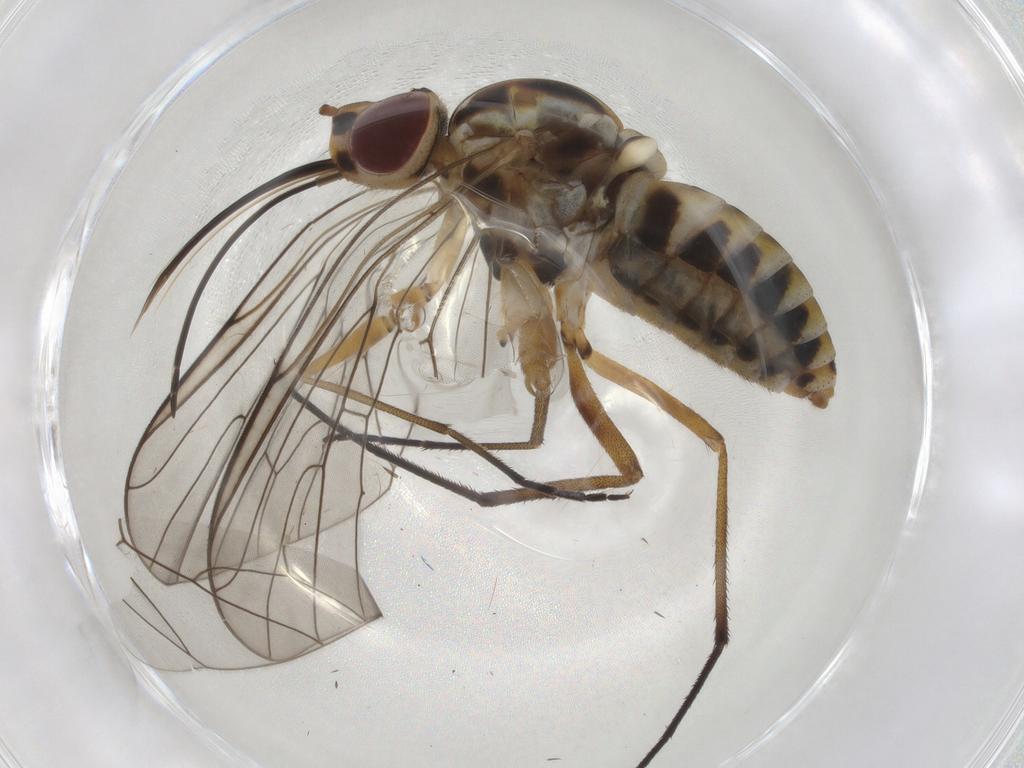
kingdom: Animalia
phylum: Arthropoda
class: Insecta
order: Diptera
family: Bombyliidae
